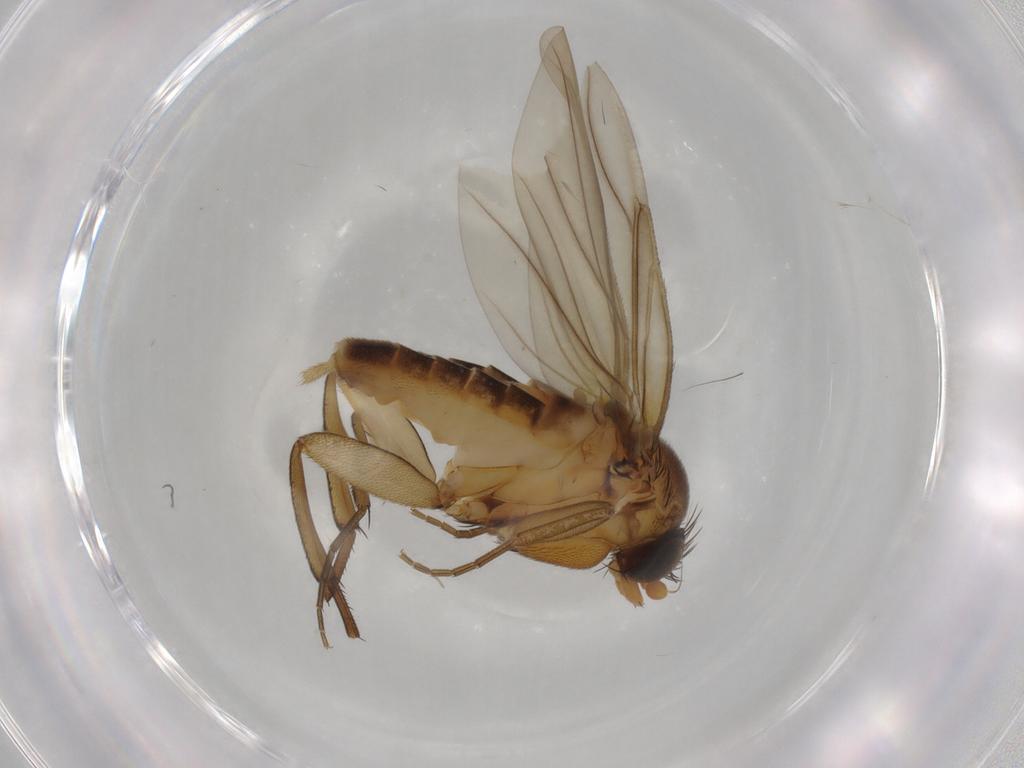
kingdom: Animalia
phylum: Arthropoda
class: Insecta
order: Diptera
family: Phoridae
